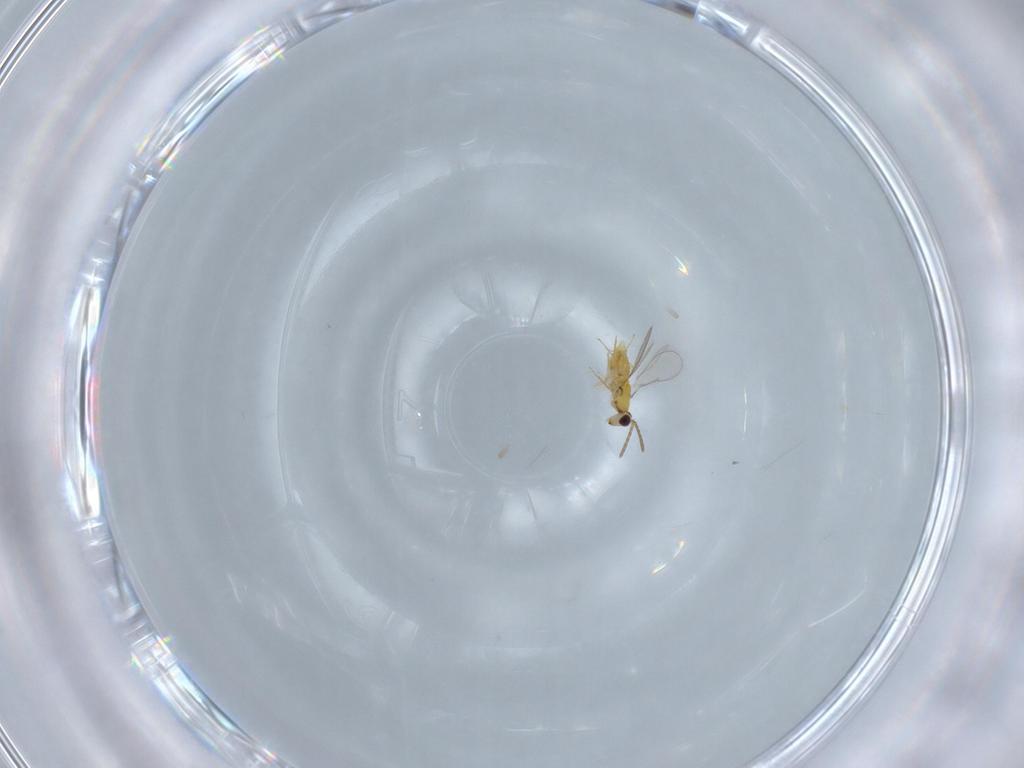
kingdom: Animalia
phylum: Arthropoda
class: Insecta
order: Hymenoptera
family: Aphelinidae
